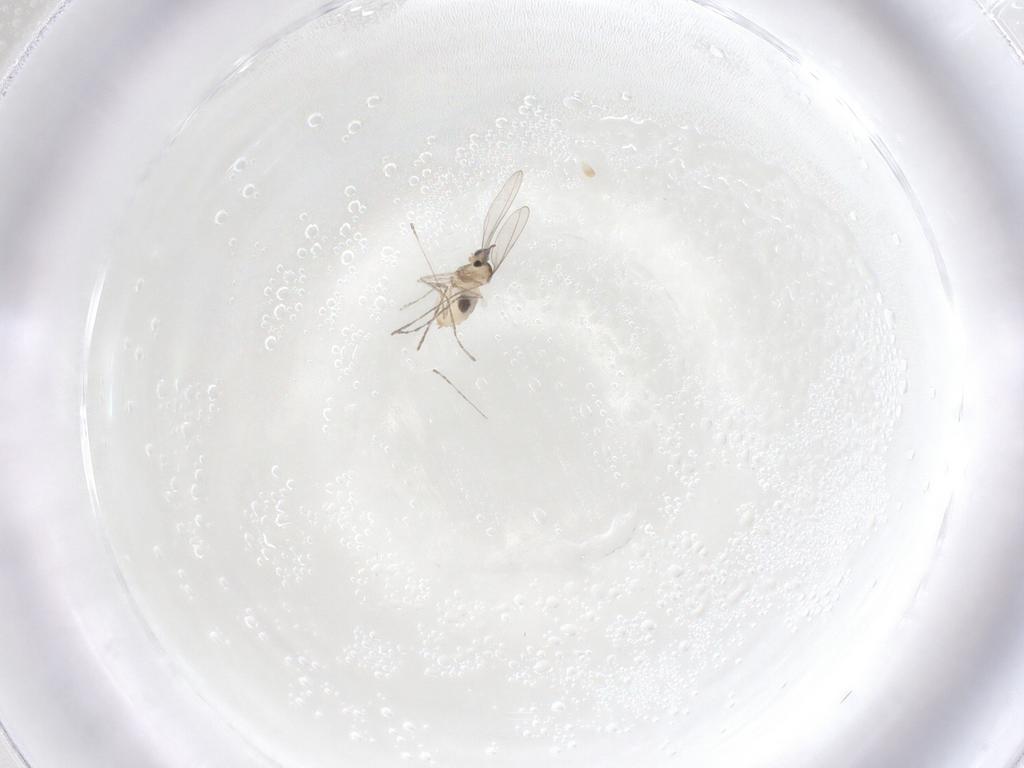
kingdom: Animalia
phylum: Arthropoda
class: Insecta
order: Diptera
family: Cecidomyiidae
